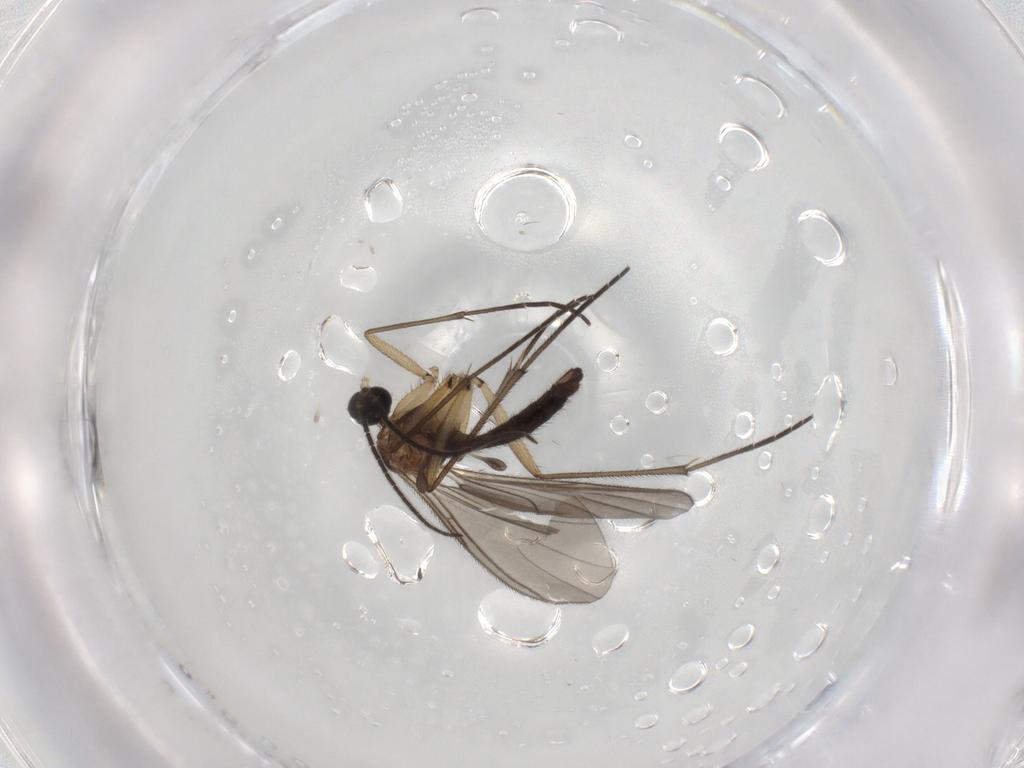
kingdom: Animalia
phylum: Arthropoda
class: Insecta
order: Diptera
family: Sciaridae
